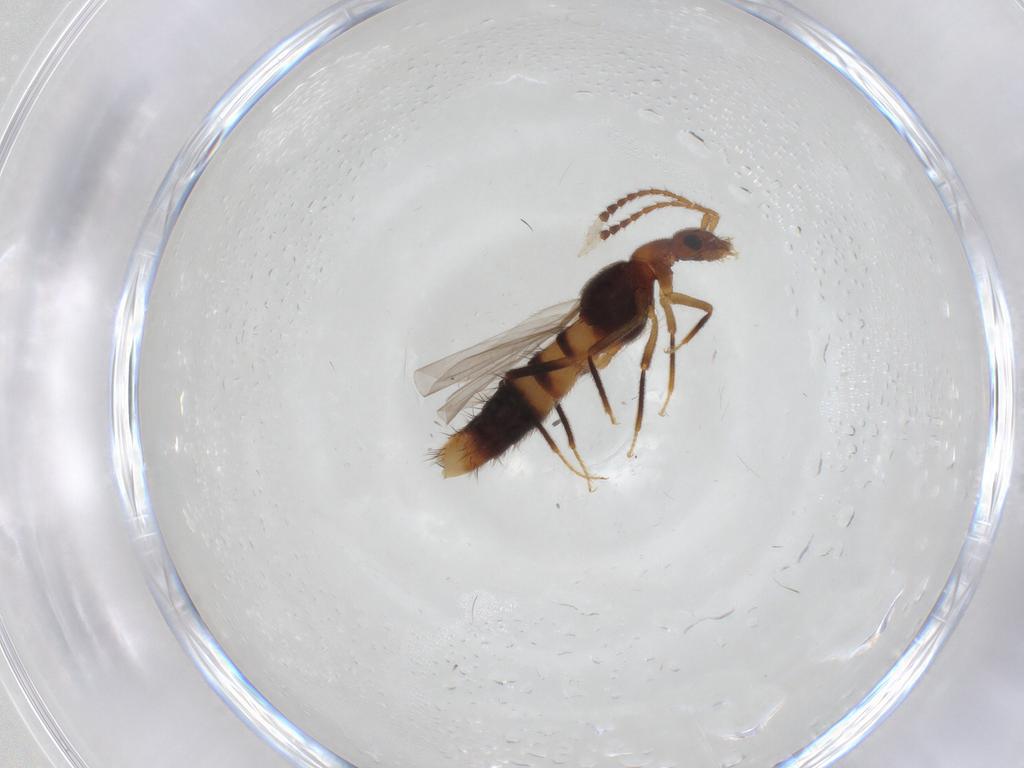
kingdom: Animalia
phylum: Arthropoda
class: Insecta
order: Coleoptera
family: Staphylinidae
